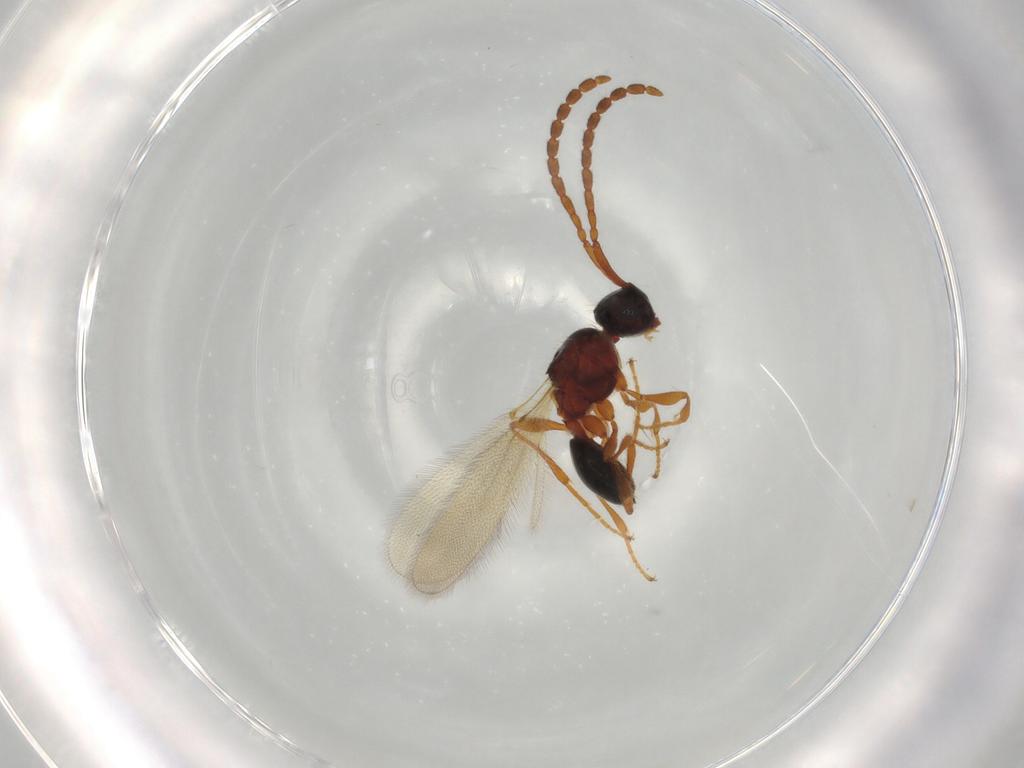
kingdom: Animalia
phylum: Arthropoda
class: Insecta
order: Hymenoptera
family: Diapriidae
